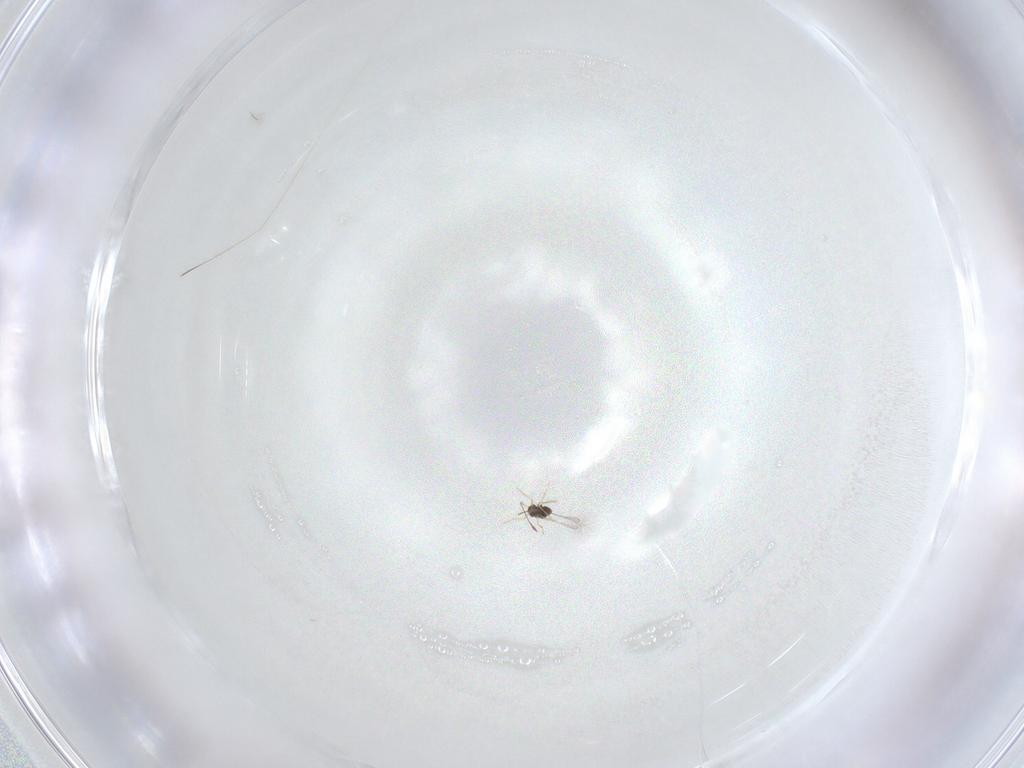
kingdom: Animalia
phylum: Arthropoda
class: Insecta
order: Hymenoptera
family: Mymaridae
